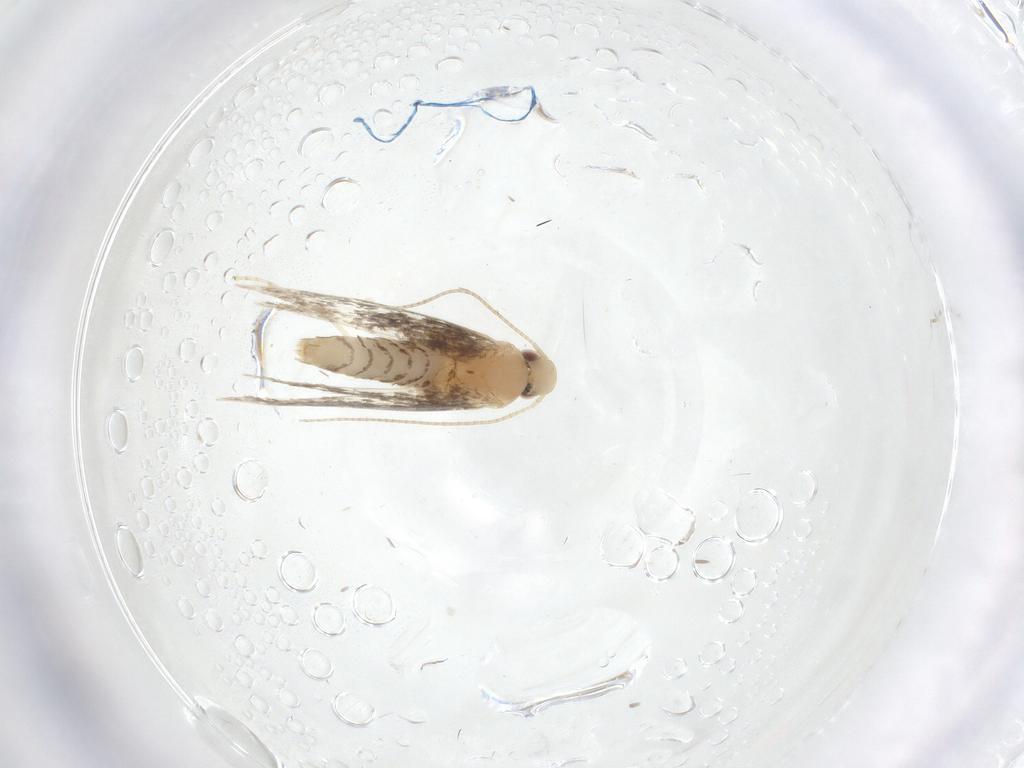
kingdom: Animalia
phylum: Arthropoda
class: Insecta
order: Lepidoptera
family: Gracillariidae
